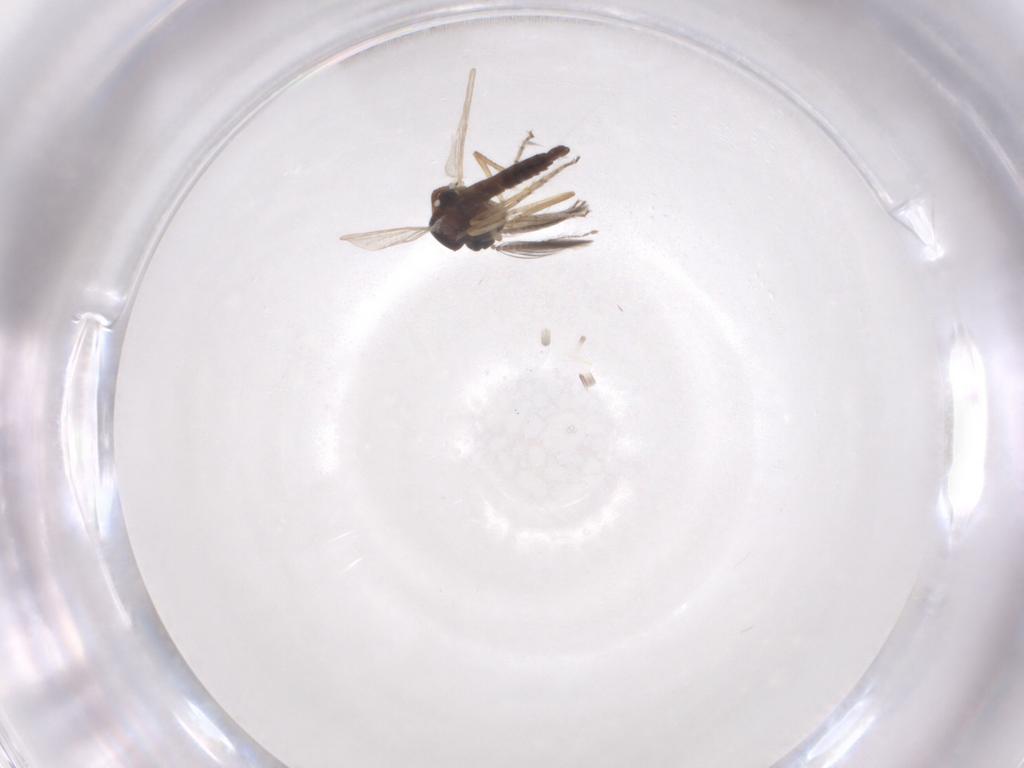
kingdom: Animalia
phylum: Arthropoda
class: Insecta
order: Diptera
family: Ceratopogonidae
